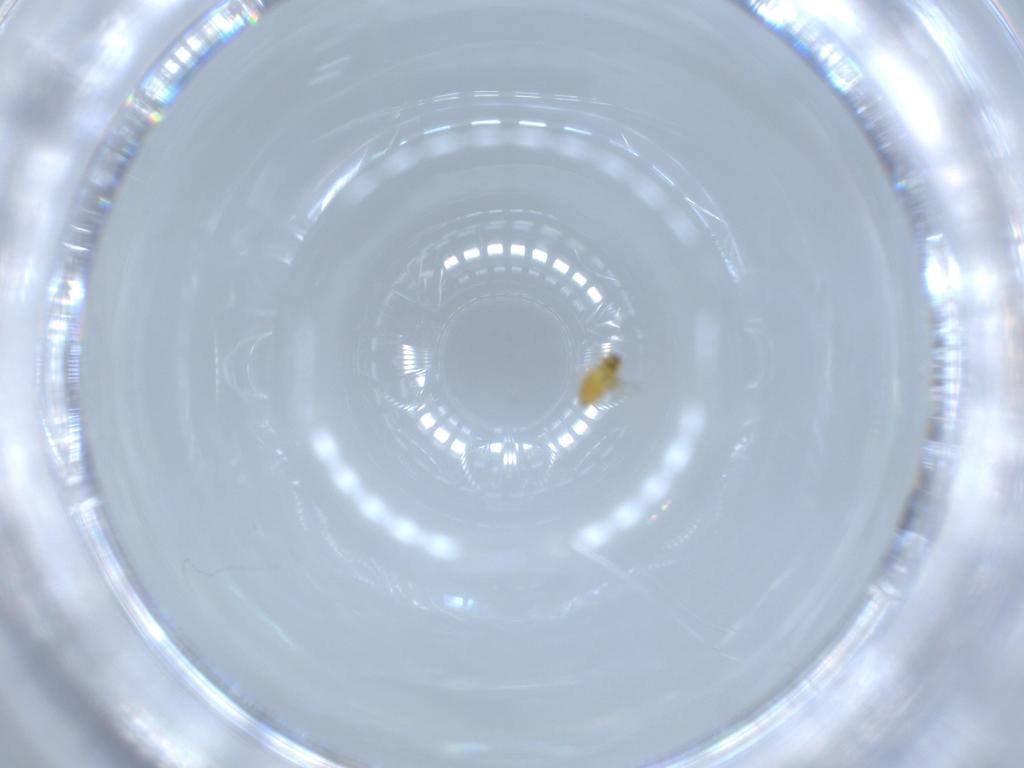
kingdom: Animalia
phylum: Arthropoda
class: Insecta
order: Hymenoptera
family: Signiphoridae
